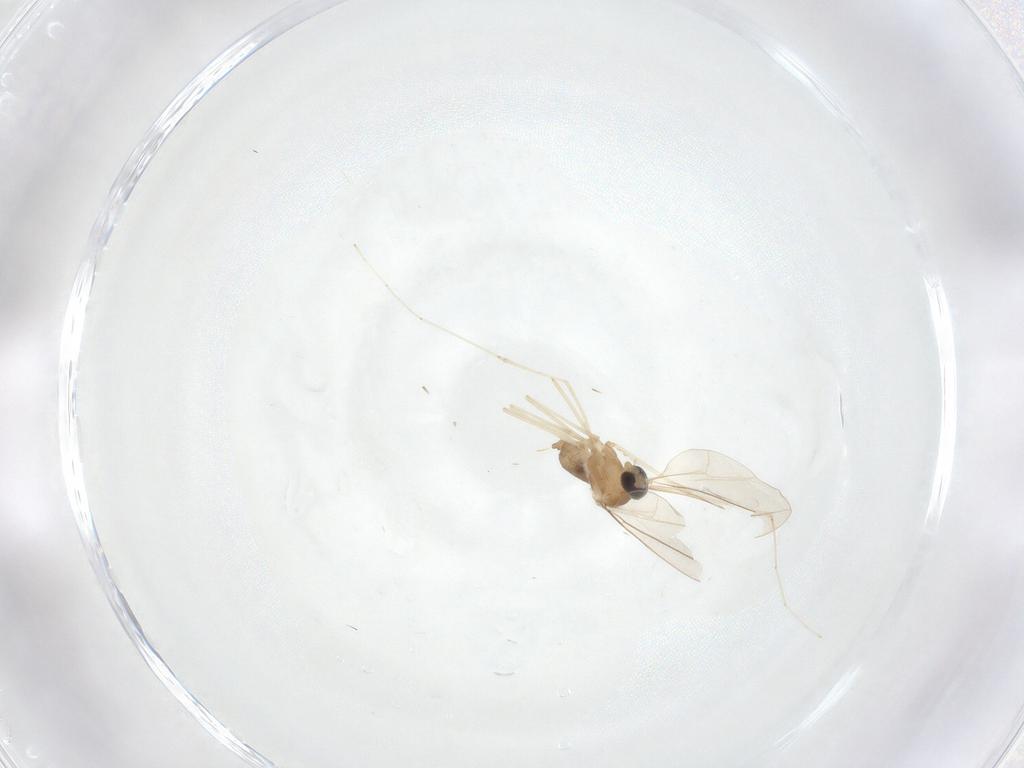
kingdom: Animalia
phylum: Arthropoda
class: Insecta
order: Diptera
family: Cecidomyiidae
